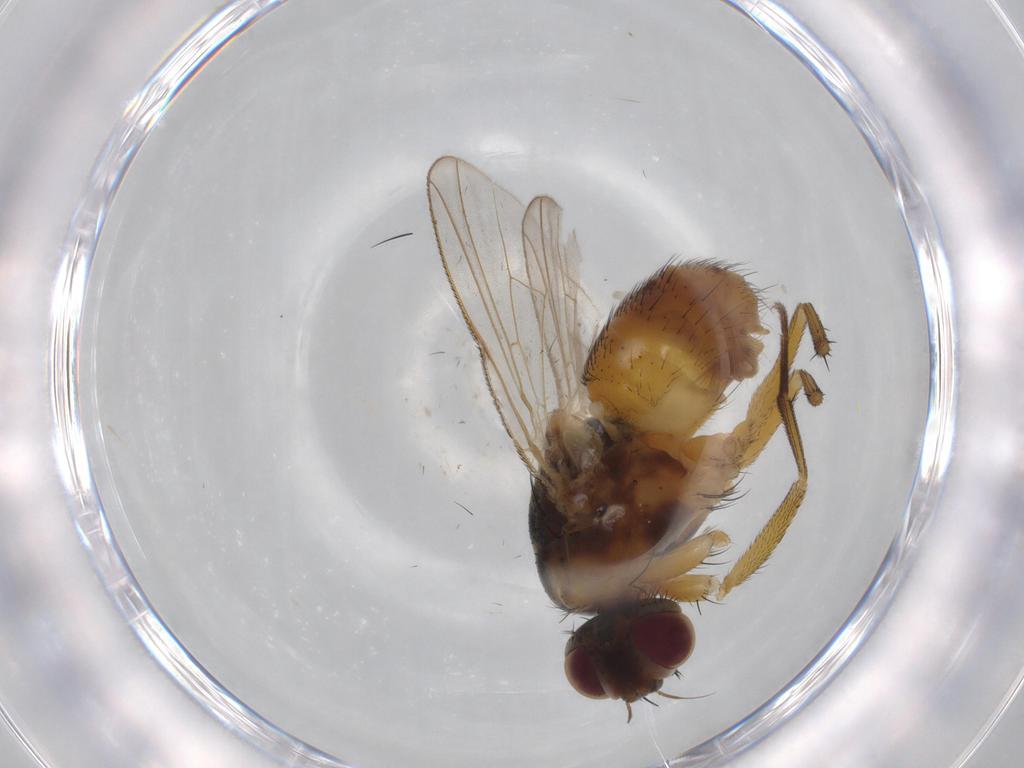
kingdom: Animalia
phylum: Arthropoda
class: Insecta
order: Diptera
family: Muscidae
